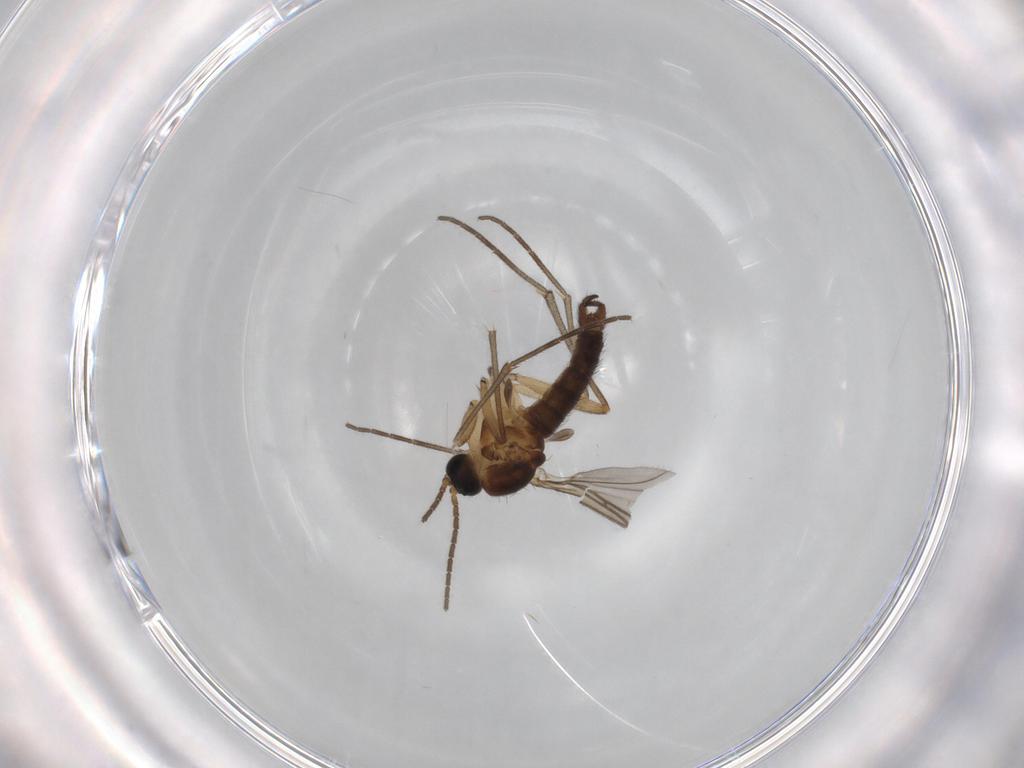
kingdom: Animalia
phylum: Arthropoda
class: Insecta
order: Diptera
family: Sciaridae
